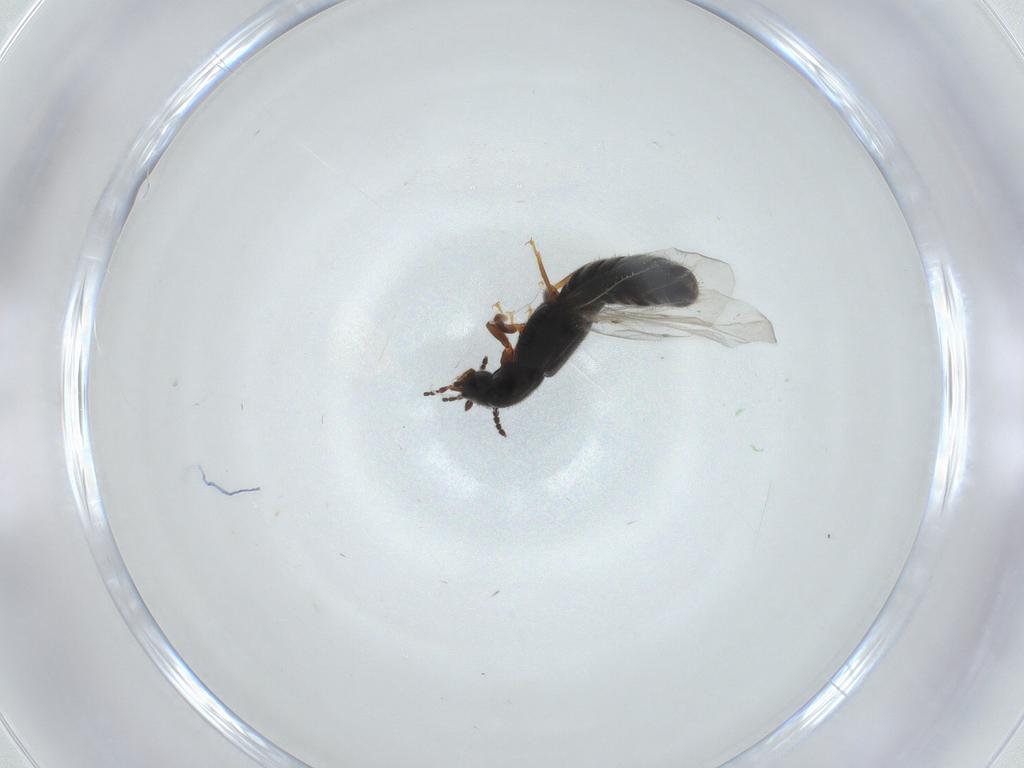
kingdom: Animalia
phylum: Arthropoda
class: Insecta
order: Coleoptera
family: Staphylinidae
